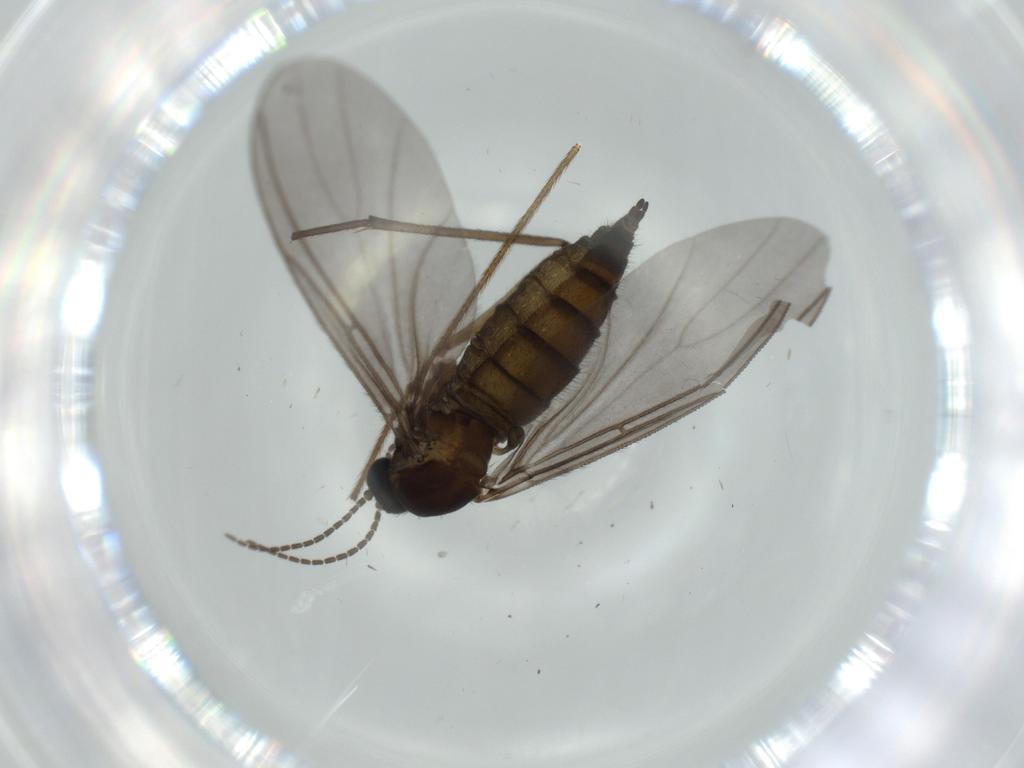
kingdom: Animalia
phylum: Arthropoda
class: Insecta
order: Diptera
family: Sciaridae
